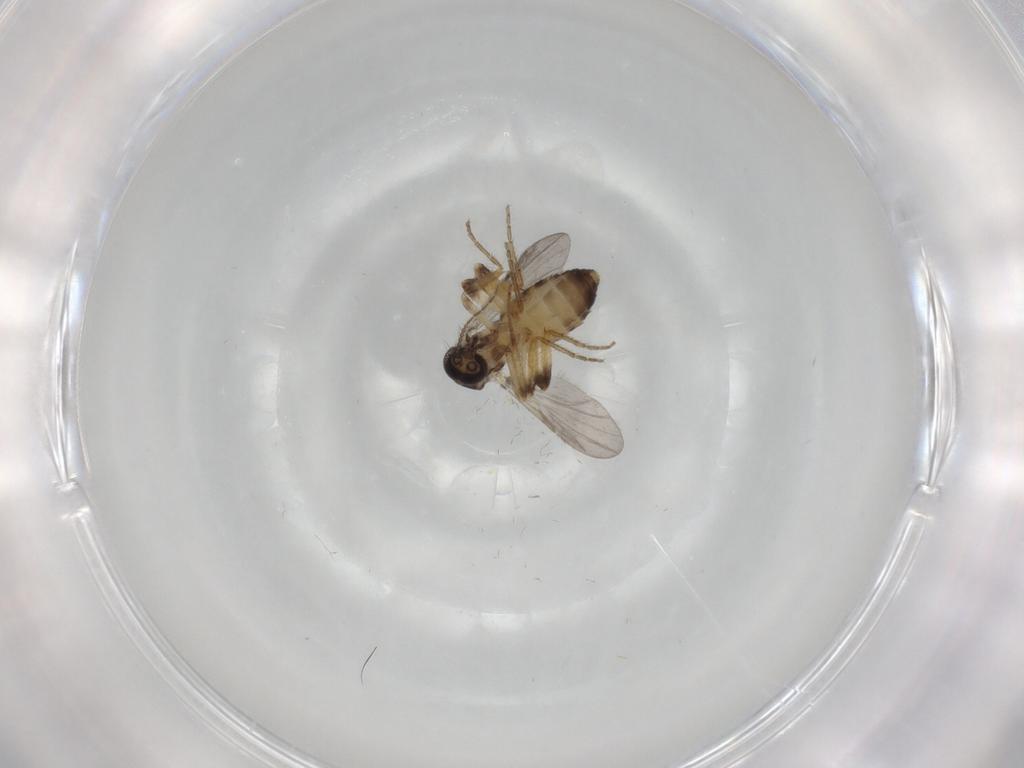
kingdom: Animalia
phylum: Arthropoda
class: Insecta
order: Diptera
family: Ceratopogonidae
